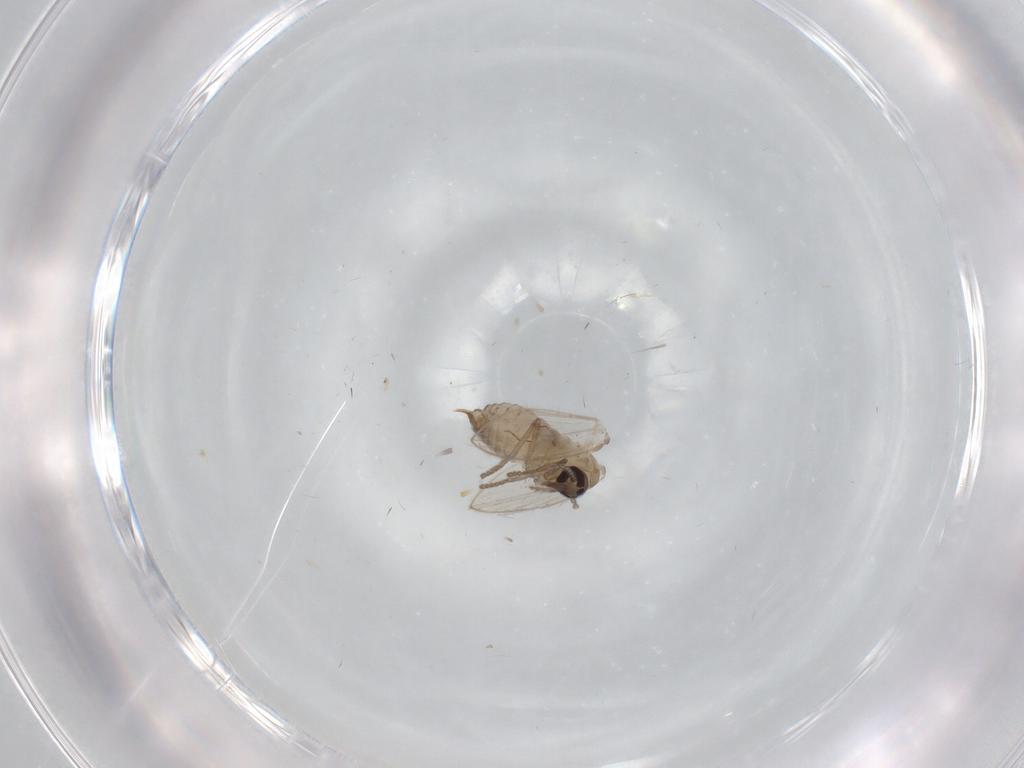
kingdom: Animalia
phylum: Arthropoda
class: Insecta
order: Diptera
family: Psychodidae
